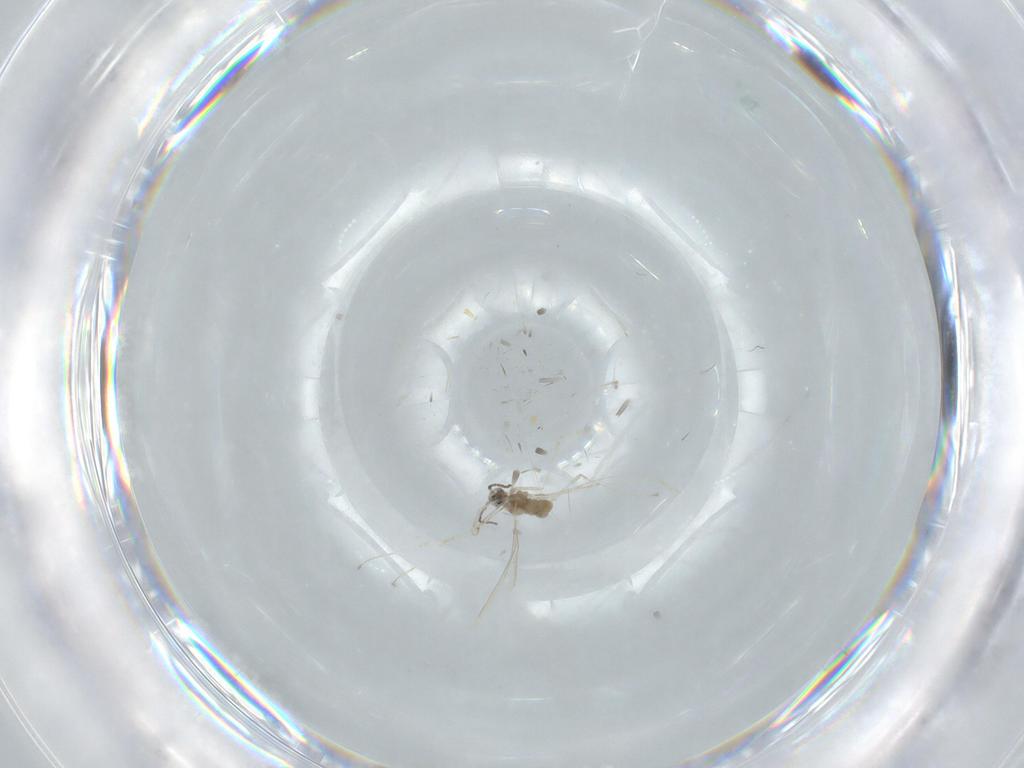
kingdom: Animalia
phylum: Arthropoda
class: Insecta
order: Diptera
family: Cecidomyiidae
